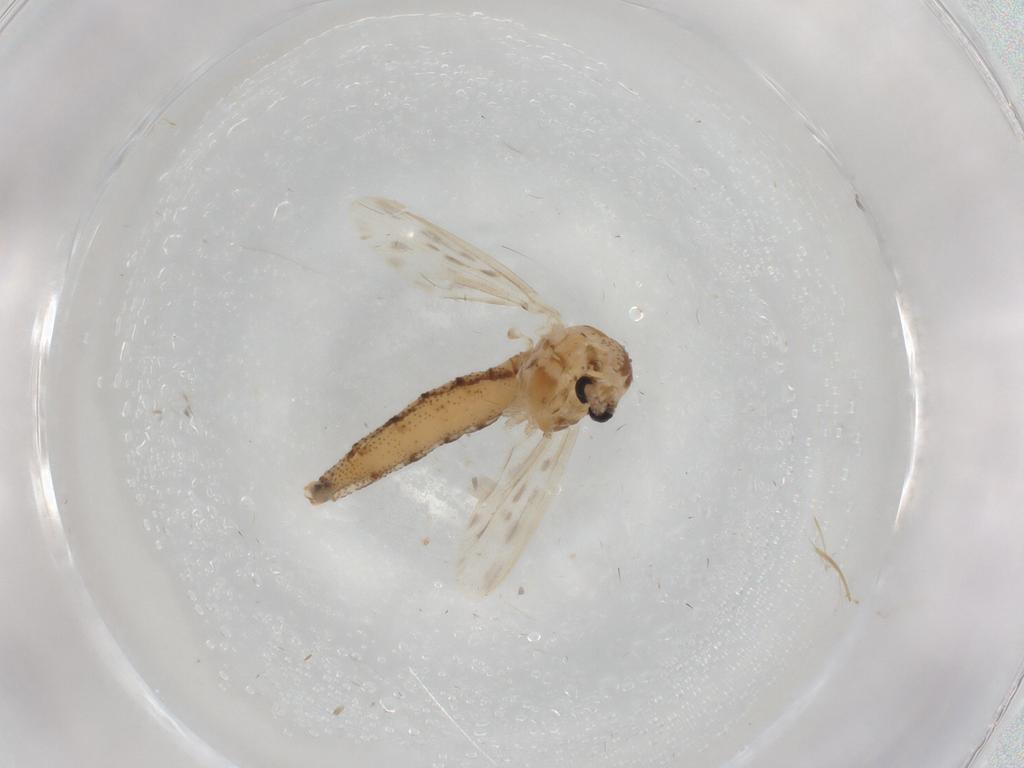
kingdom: Animalia
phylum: Arthropoda
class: Insecta
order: Diptera
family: Chaoboridae
